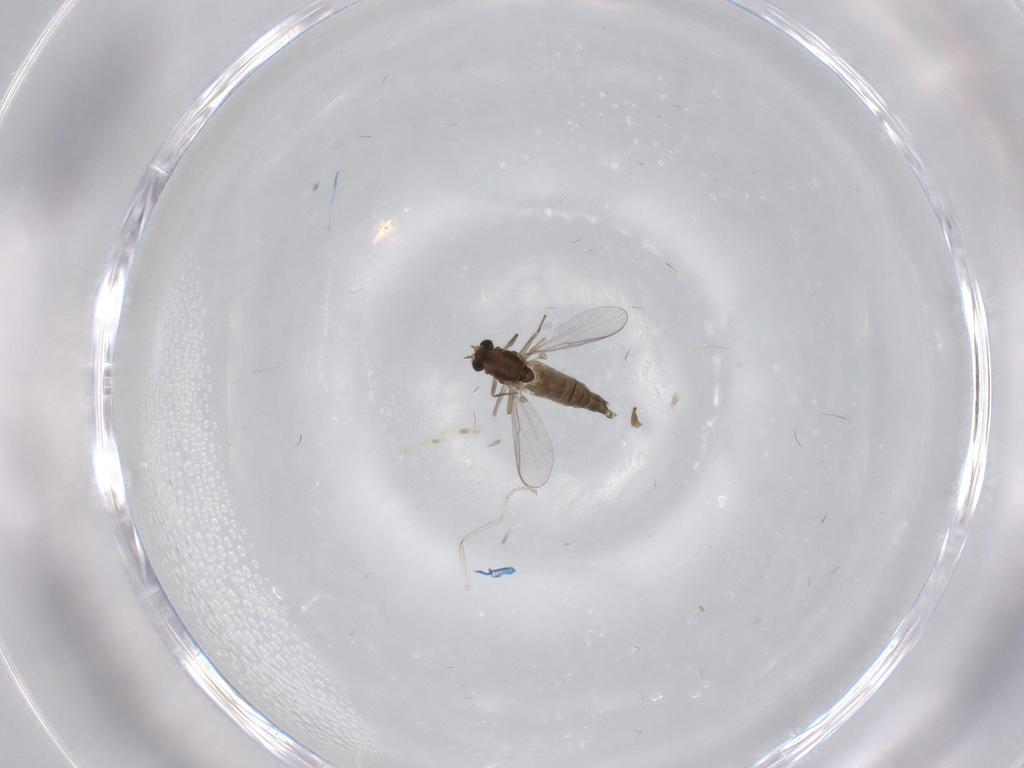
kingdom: Animalia
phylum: Arthropoda
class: Insecta
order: Diptera
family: Cecidomyiidae
